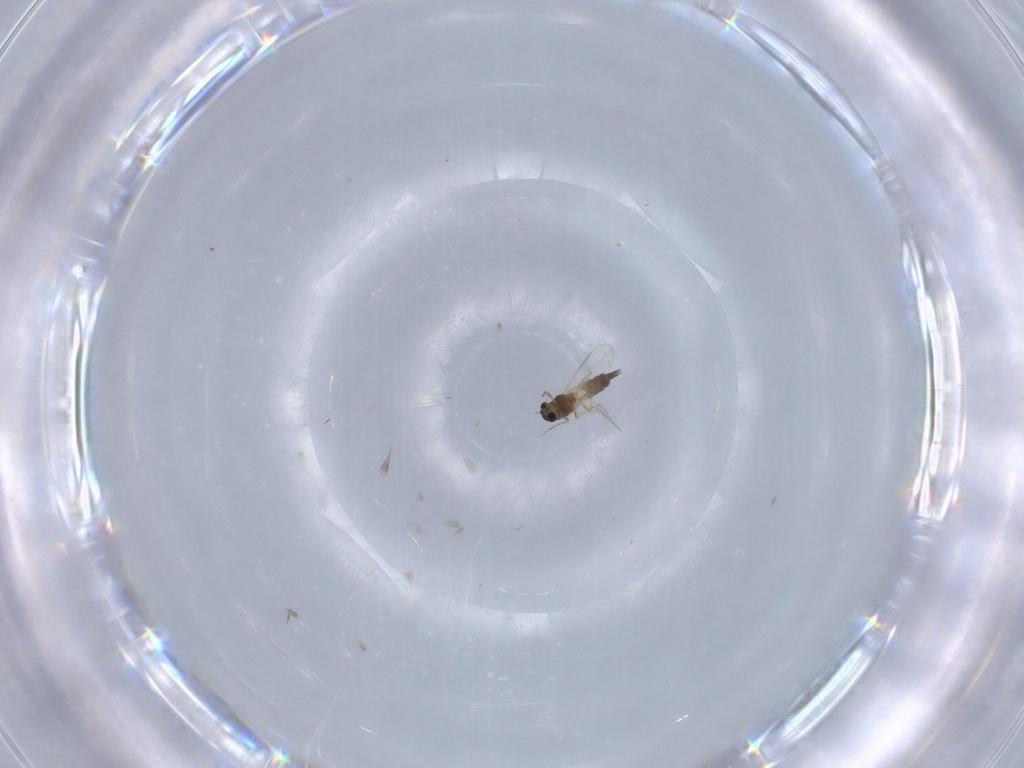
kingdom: Animalia
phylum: Arthropoda
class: Insecta
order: Diptera
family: Chironomidae
